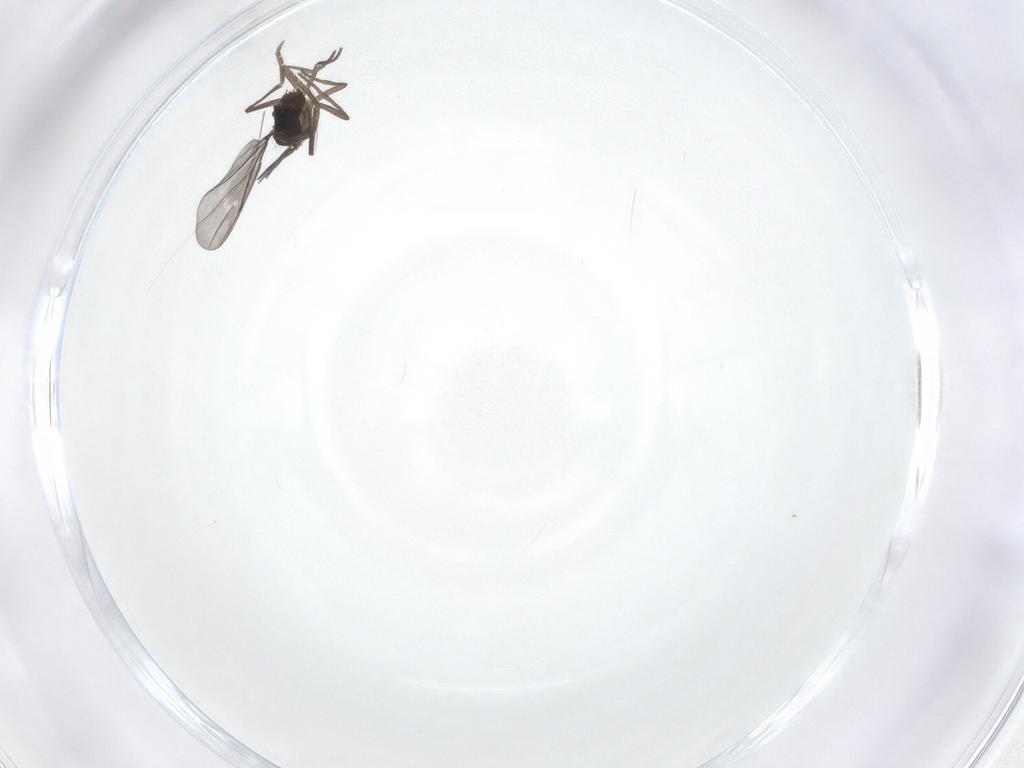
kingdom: Animalia
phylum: Arthropoda
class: Insecta
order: Diptera
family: Phoridae
